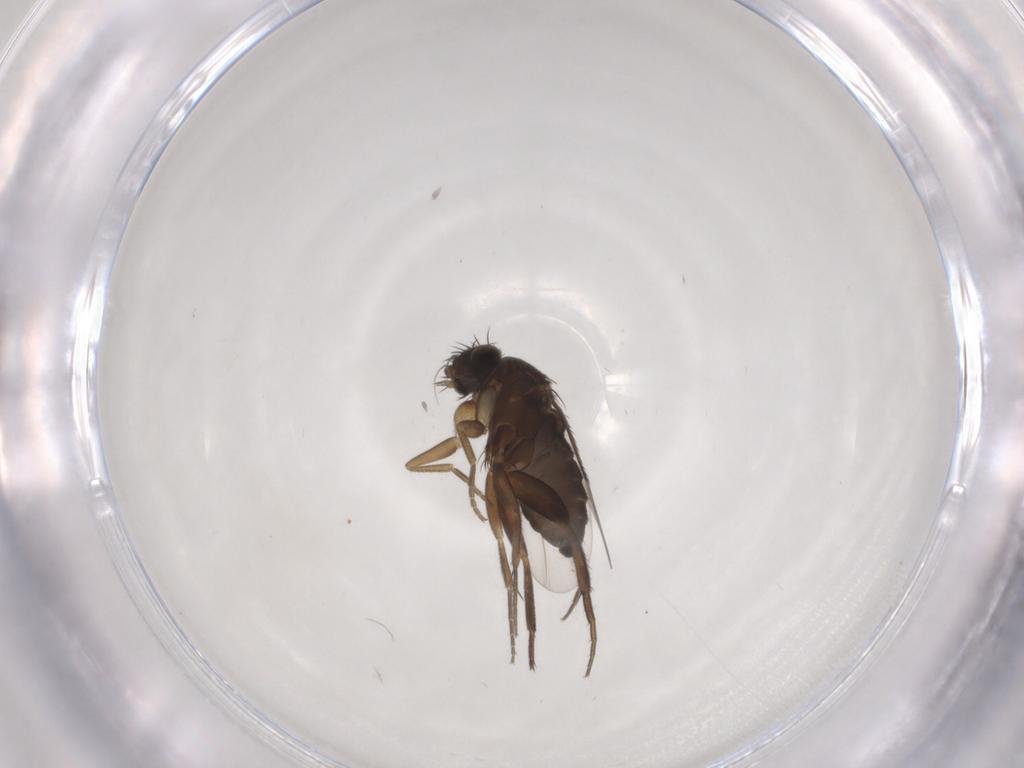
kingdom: Animalia
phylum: Arthropoda
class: Insecta
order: Diptera
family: Phoridae
